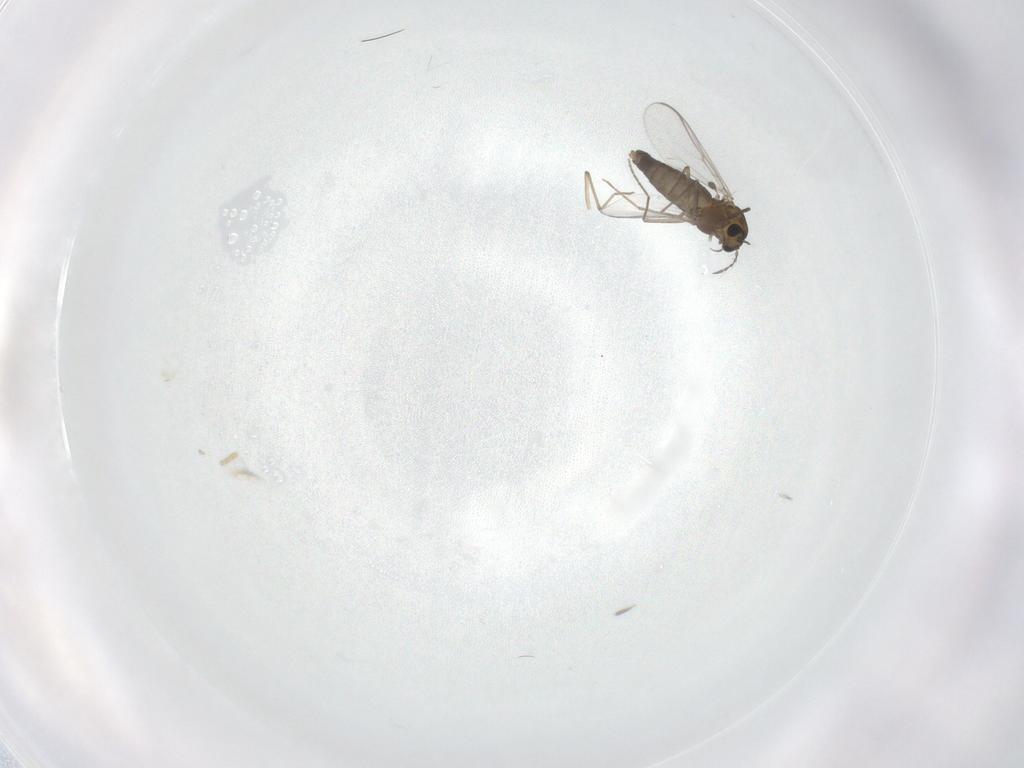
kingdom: Animalia
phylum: Arthropoda
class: Insecta
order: Diptera
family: Chironomidae
